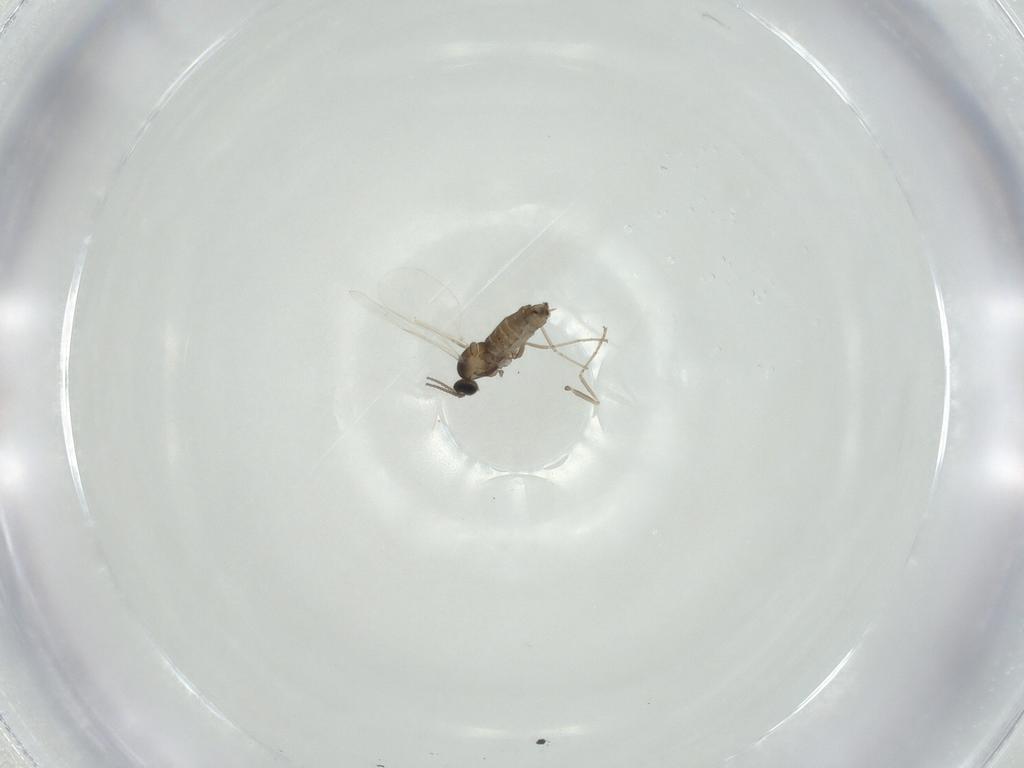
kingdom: Animalia
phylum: Arthropoda
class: Insecta
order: Diptera
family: Cecidomyiidae
